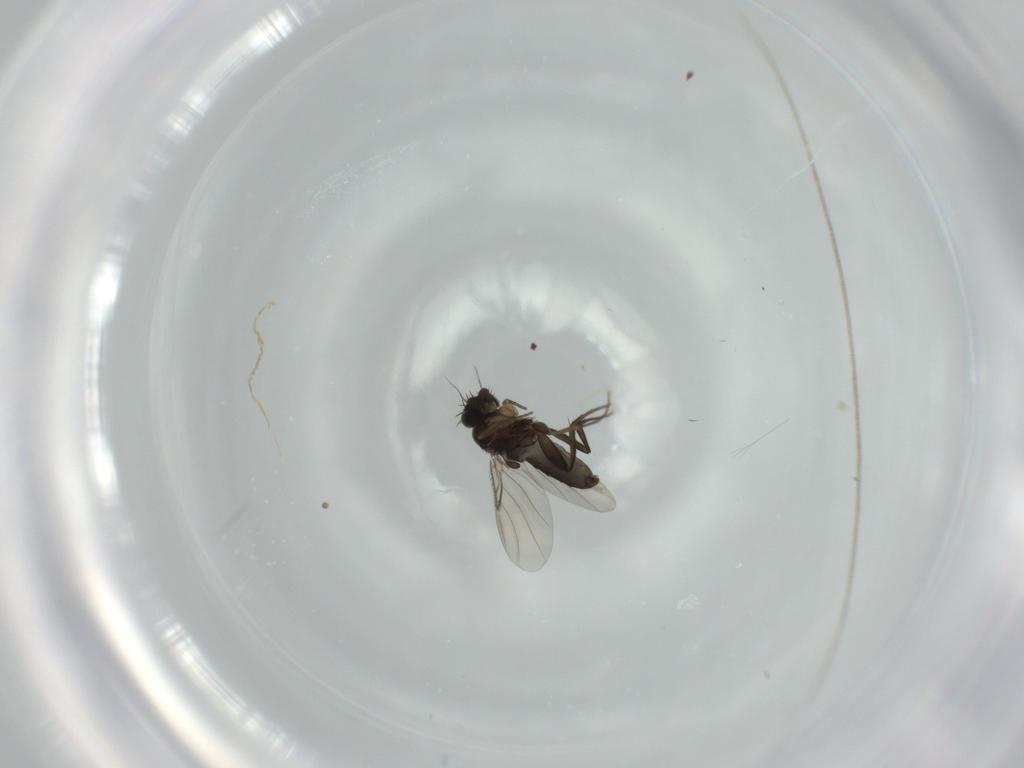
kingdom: Animalia
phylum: Arthropoda
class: Insecta
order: Diptera
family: Phoridae
